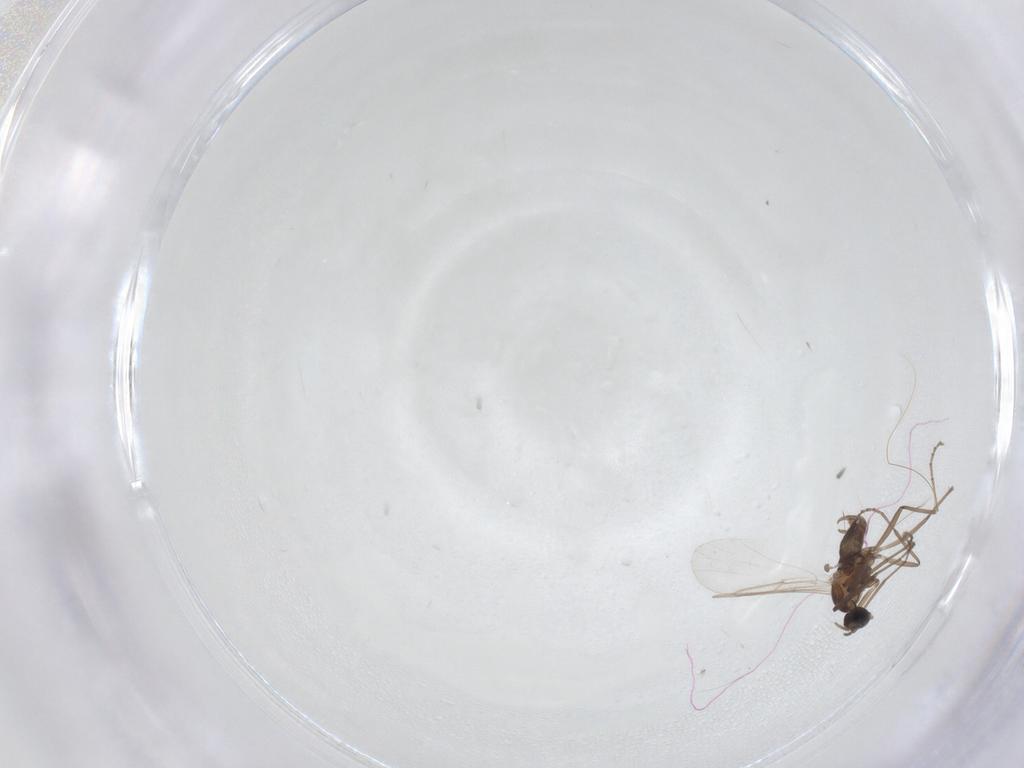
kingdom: Animalia
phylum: Arthropoda
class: Insecta
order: Diptera
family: Cecidomyiidae
